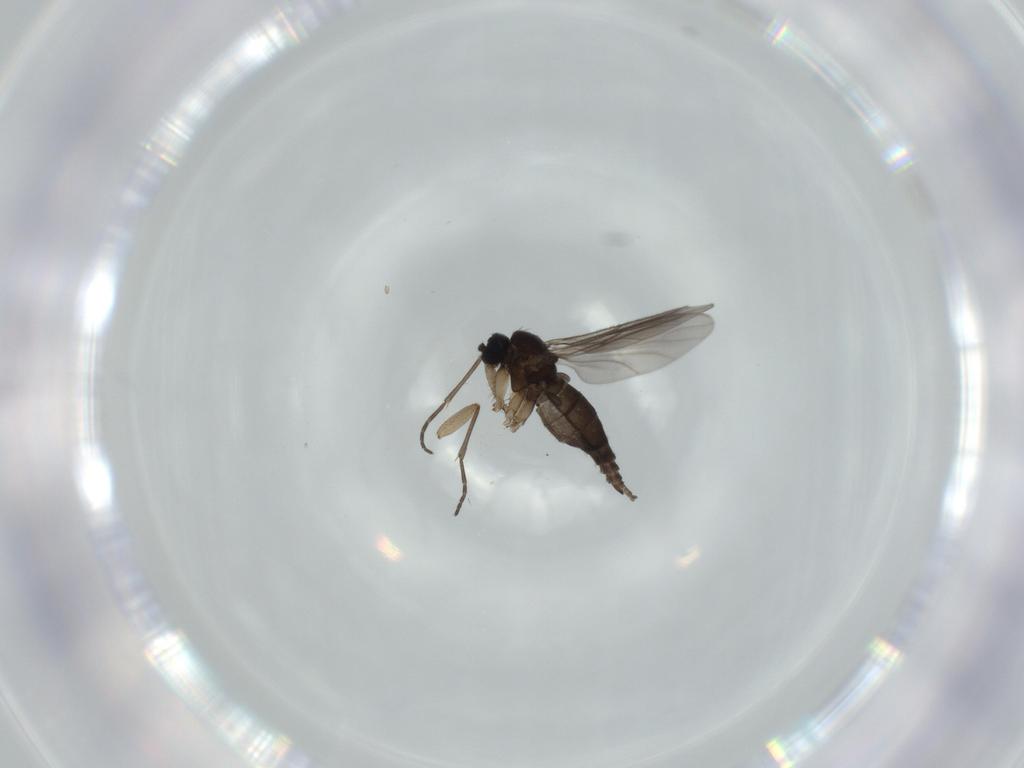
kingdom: Animalia
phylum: Arthropoda
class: Insecta
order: Diptera
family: Sciaridae
